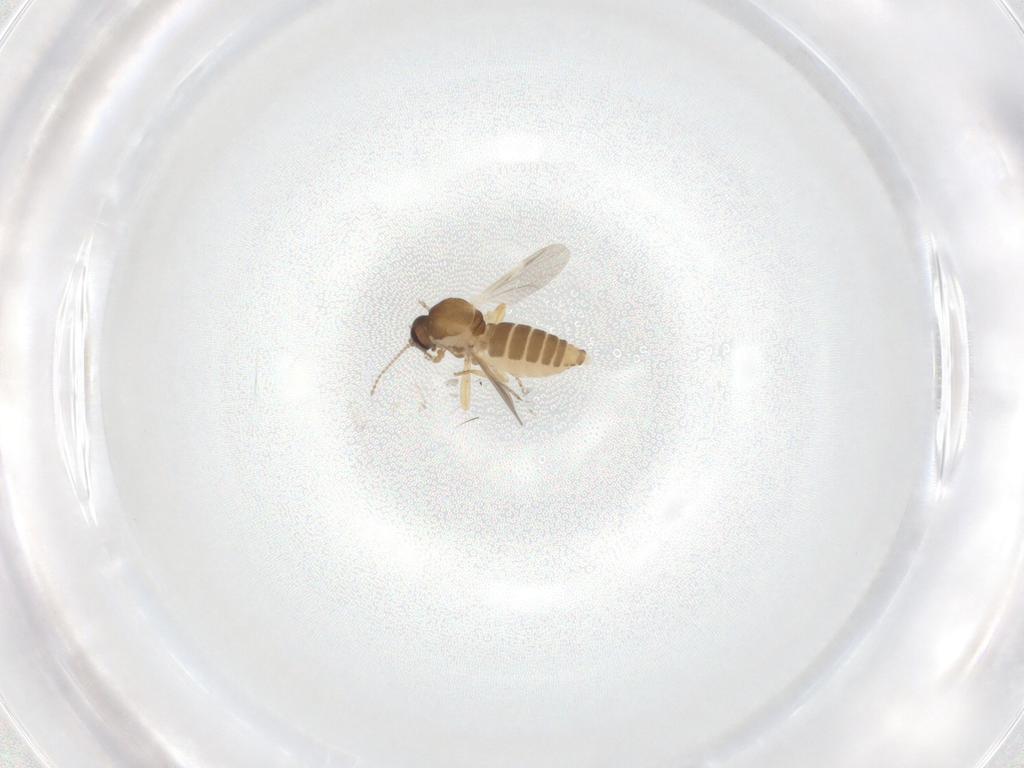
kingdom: Animalia
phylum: Arthropoda
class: Insecta
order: Diptera
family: Ceratopogonidae
